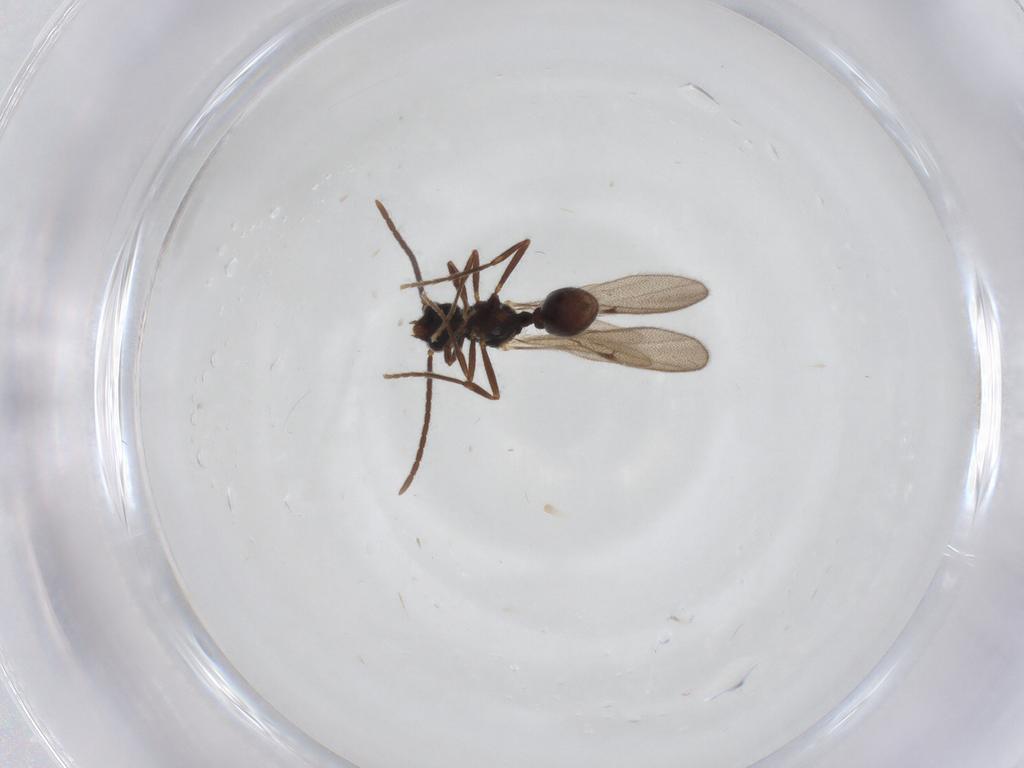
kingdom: Animalia
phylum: Arthropoda
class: Insecta
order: Hymenoptera
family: Formicidae
